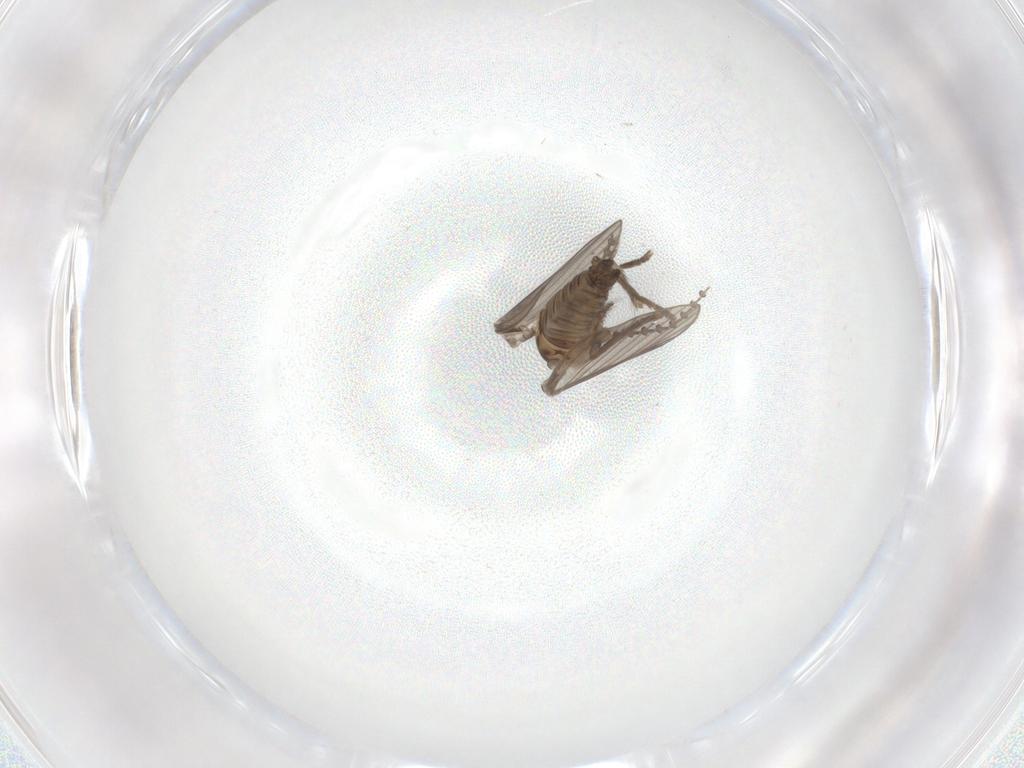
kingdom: Animalia
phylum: Arthropoda
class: Insecta
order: Diptera
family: Psychodidae
